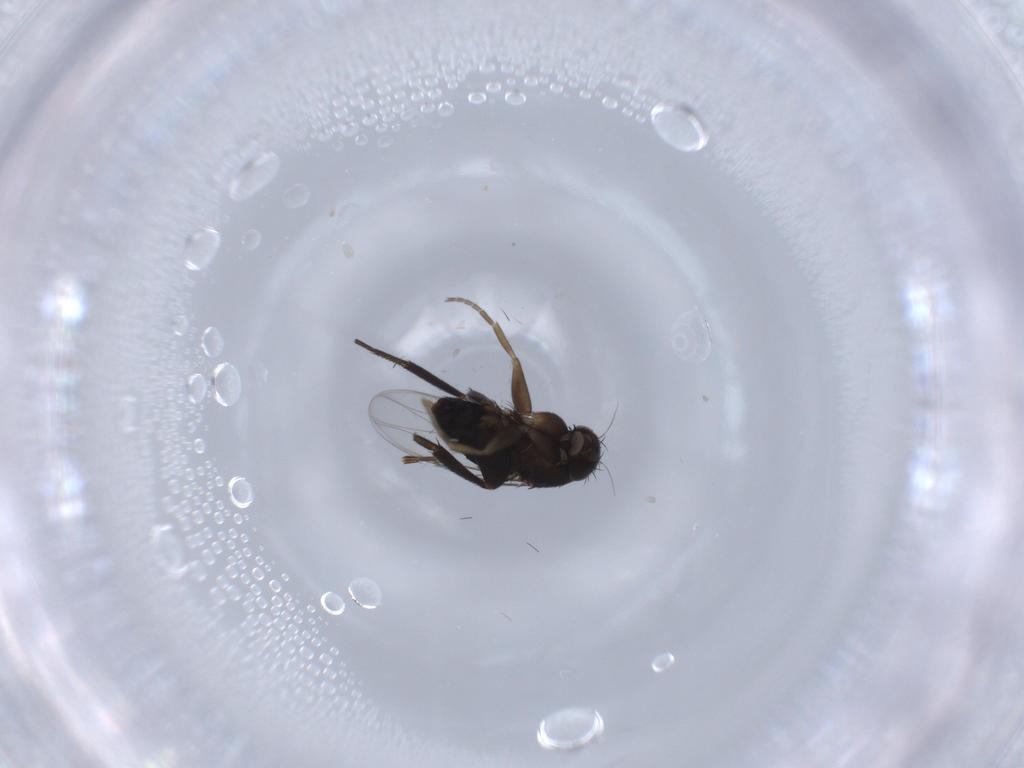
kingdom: Animalia
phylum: Arthropoda
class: Insecta
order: Diptera
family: Phoridae
